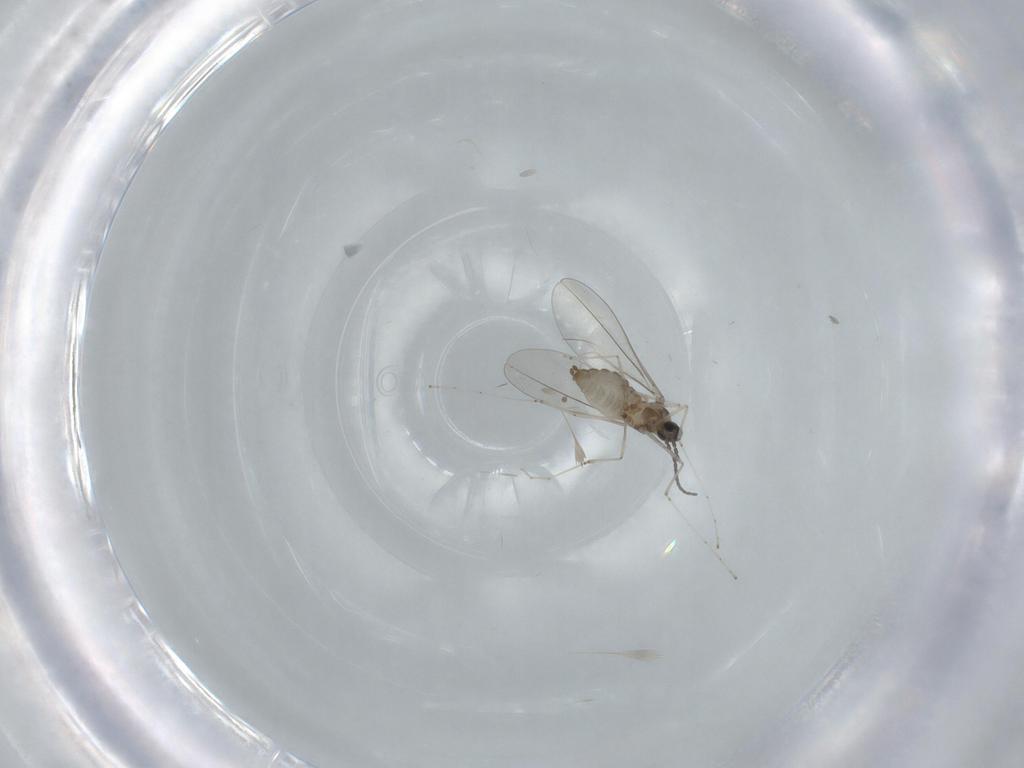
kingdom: Animalia
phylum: Arthropoda
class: Insecta
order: Diptera
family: Cecidomyiidae
